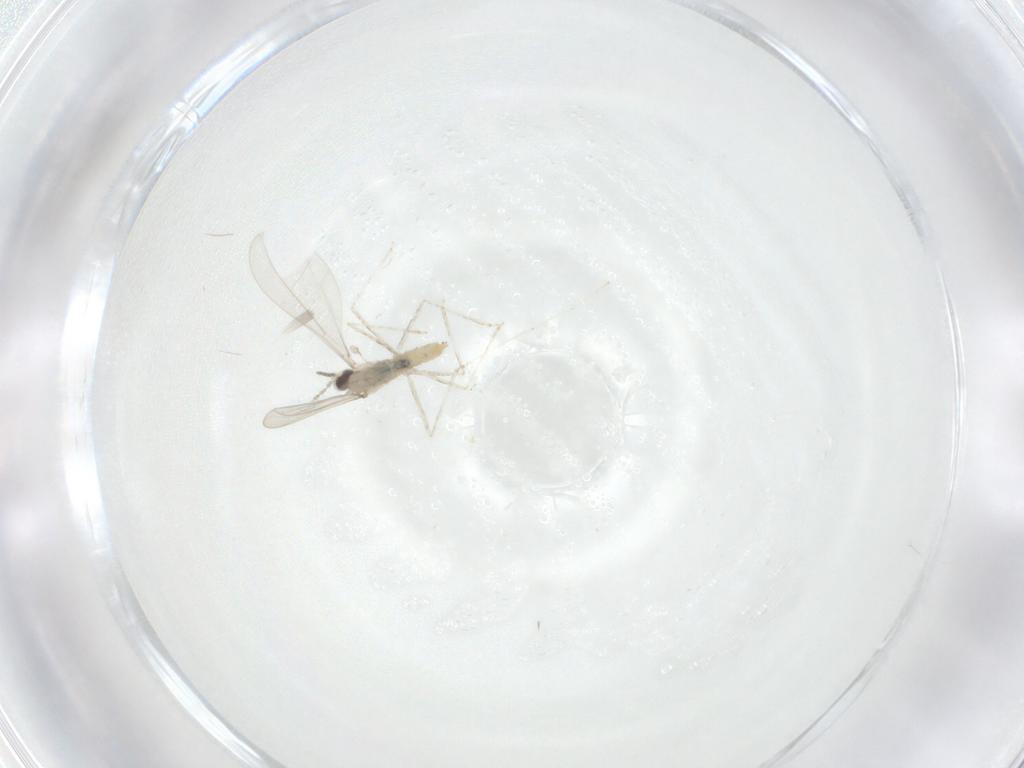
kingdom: Animalia
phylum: Arthropoda
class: Insecta
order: Diptera
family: Cecidomyiidae
